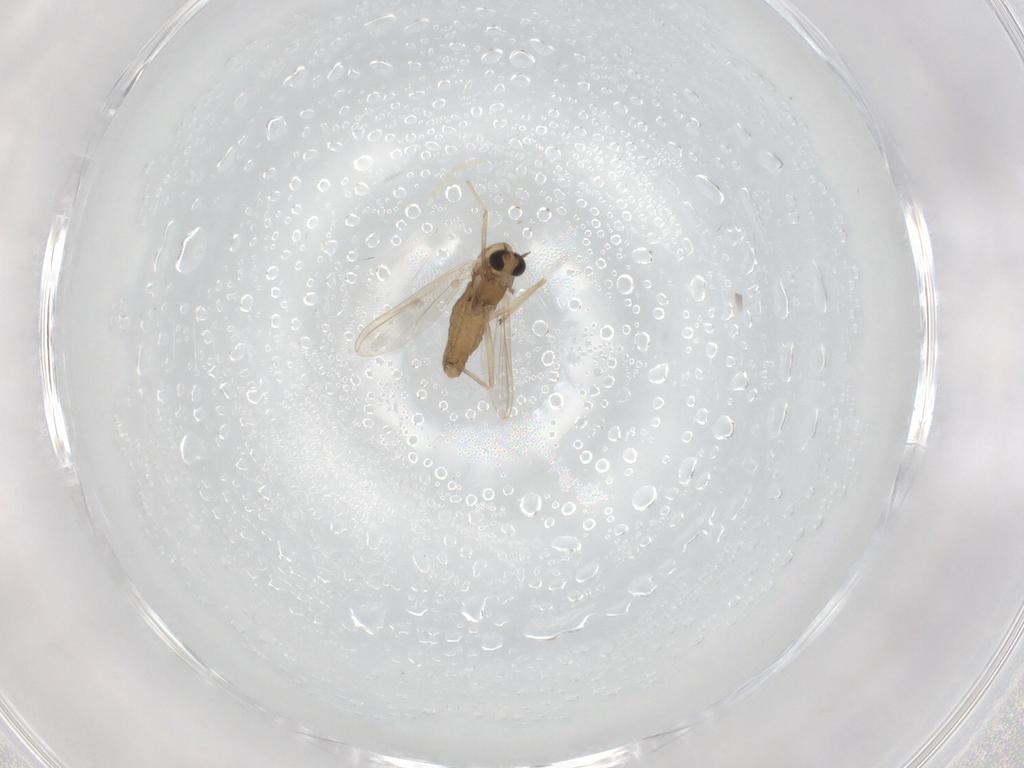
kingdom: Animalia
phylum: Arthropoda
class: Insecta
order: Diptera
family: Chironomidae
